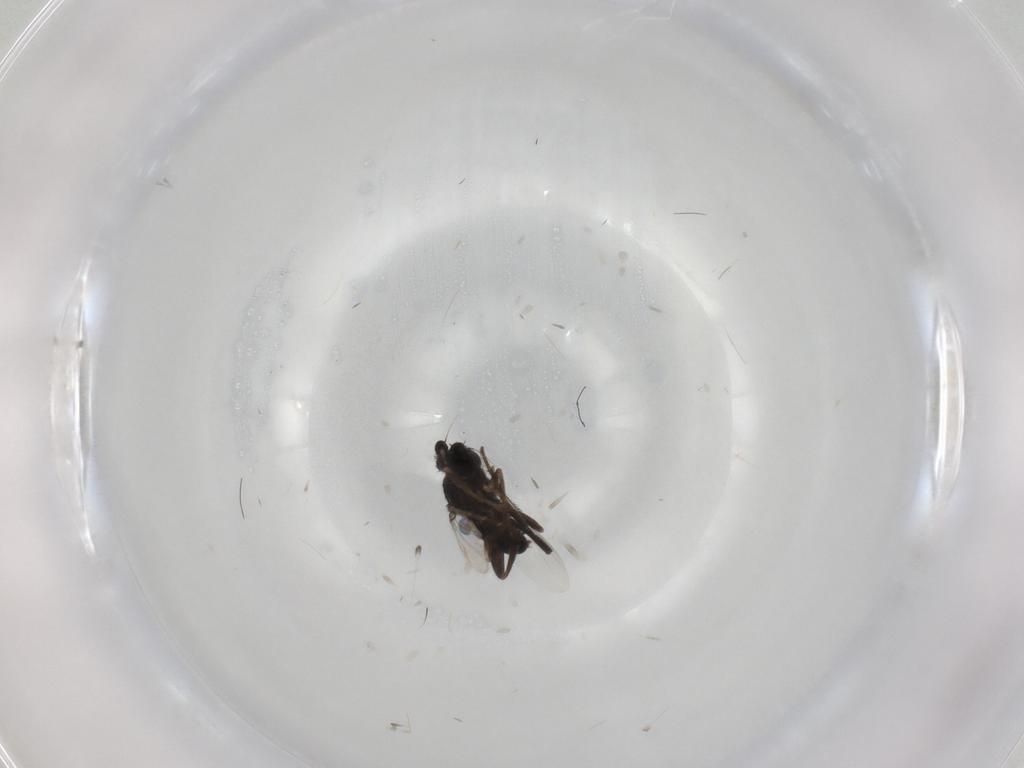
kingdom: Animalia
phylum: Arthropoda
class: Insecta
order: Diptera
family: Phoridae
